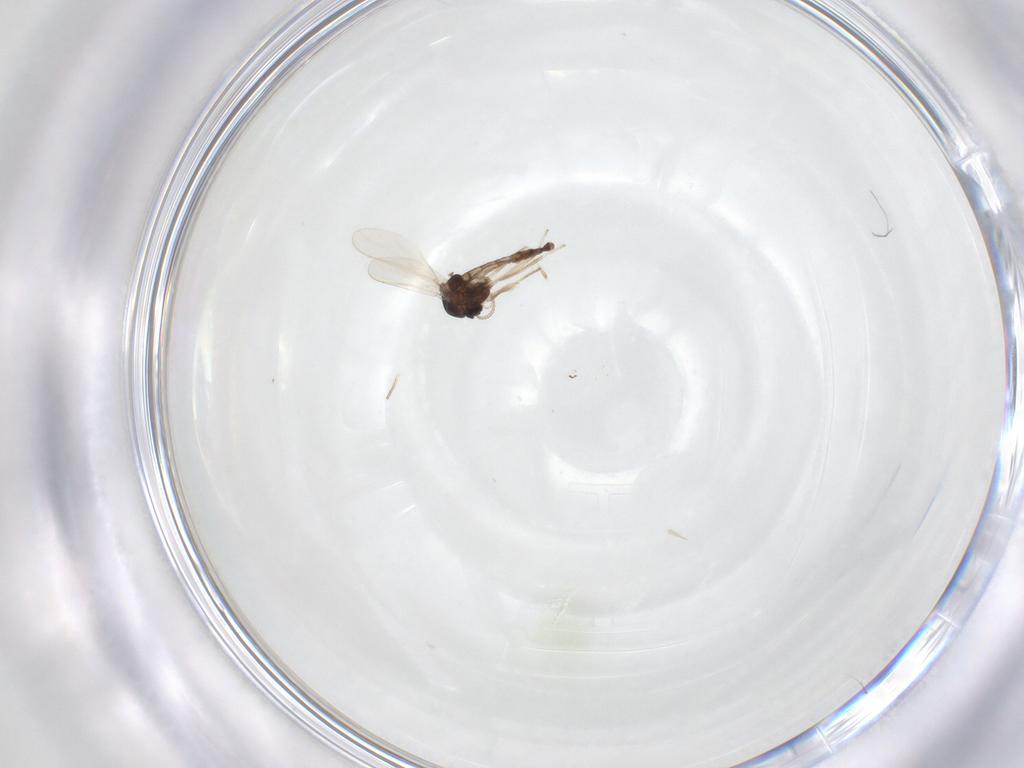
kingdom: Animalia
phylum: Arthropoda
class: Insecta
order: Diptera
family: Chironomidae
